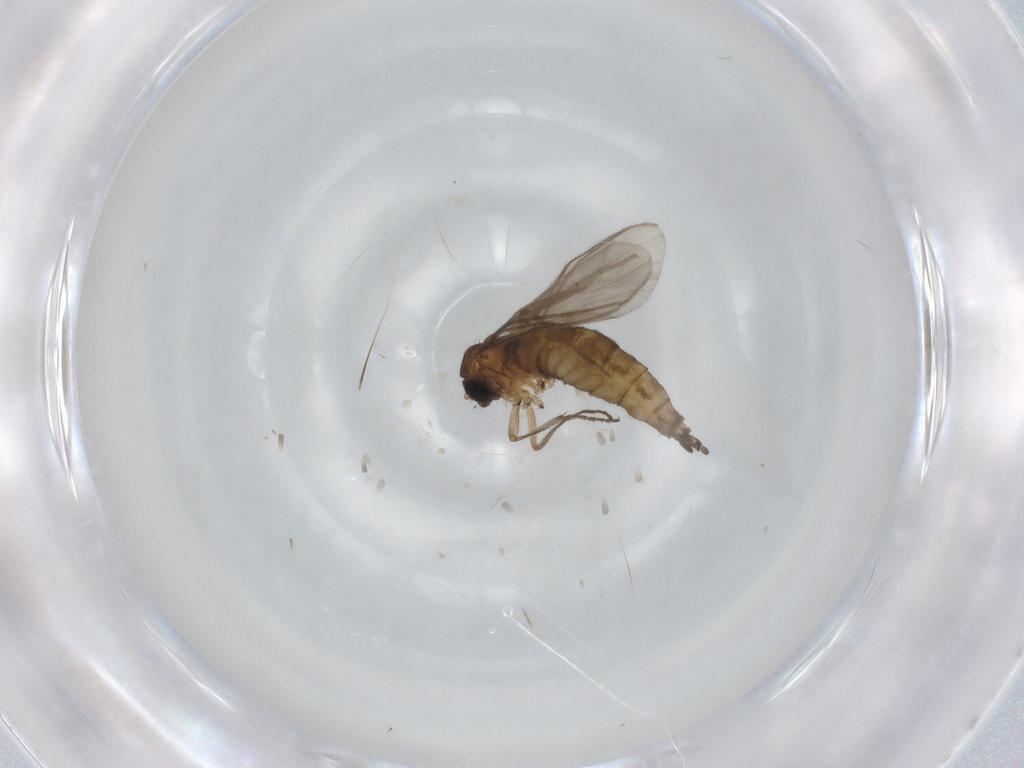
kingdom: Animalia
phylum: Arthropoda
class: Insecta
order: Diptera
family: Sciaridae
